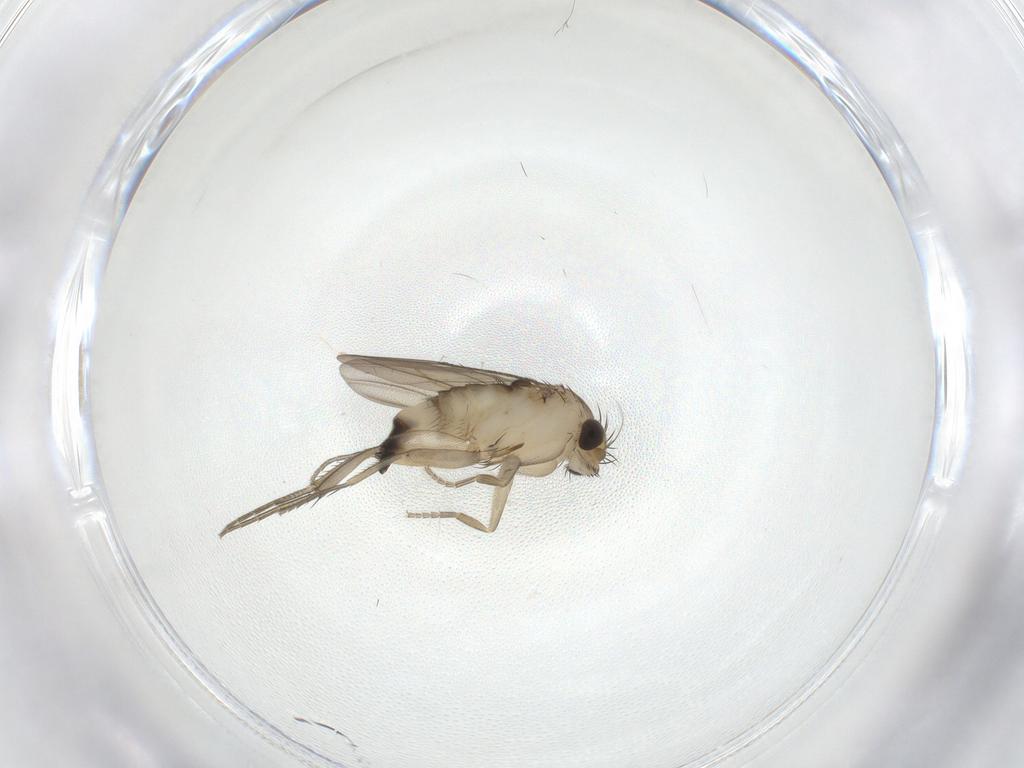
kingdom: Animalia
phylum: Arthropoda
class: Insecta
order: Diptera
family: Phoridae
